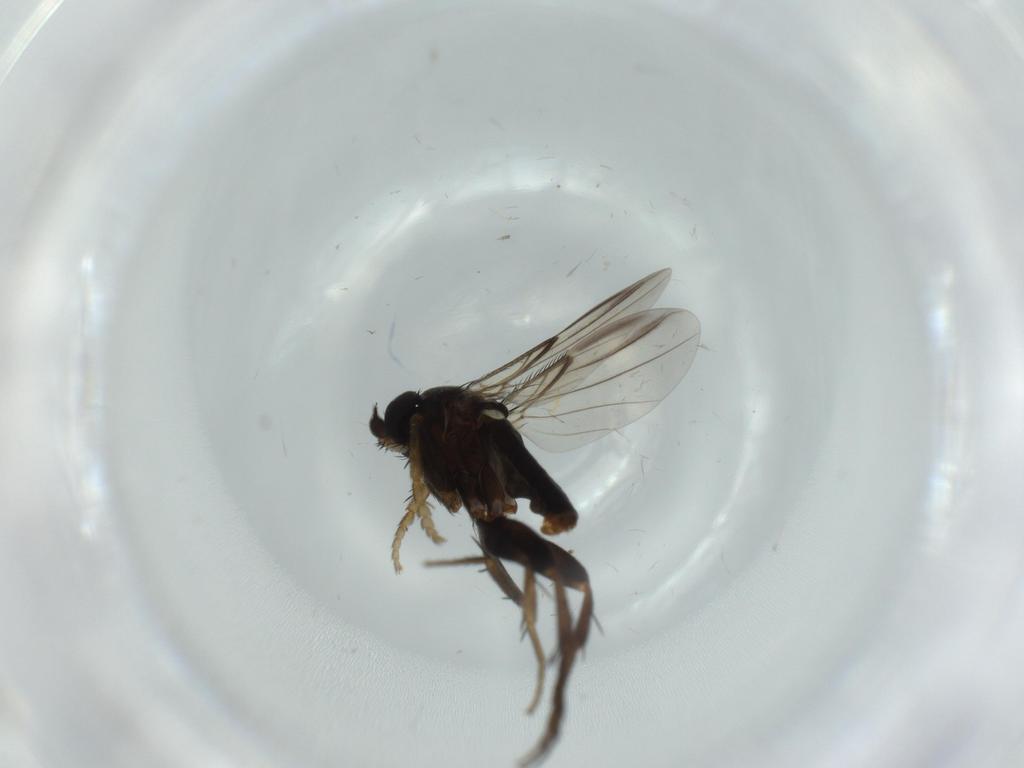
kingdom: Animalia
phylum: Arthropoda
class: Insecta
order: Diptera
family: Phoridae
